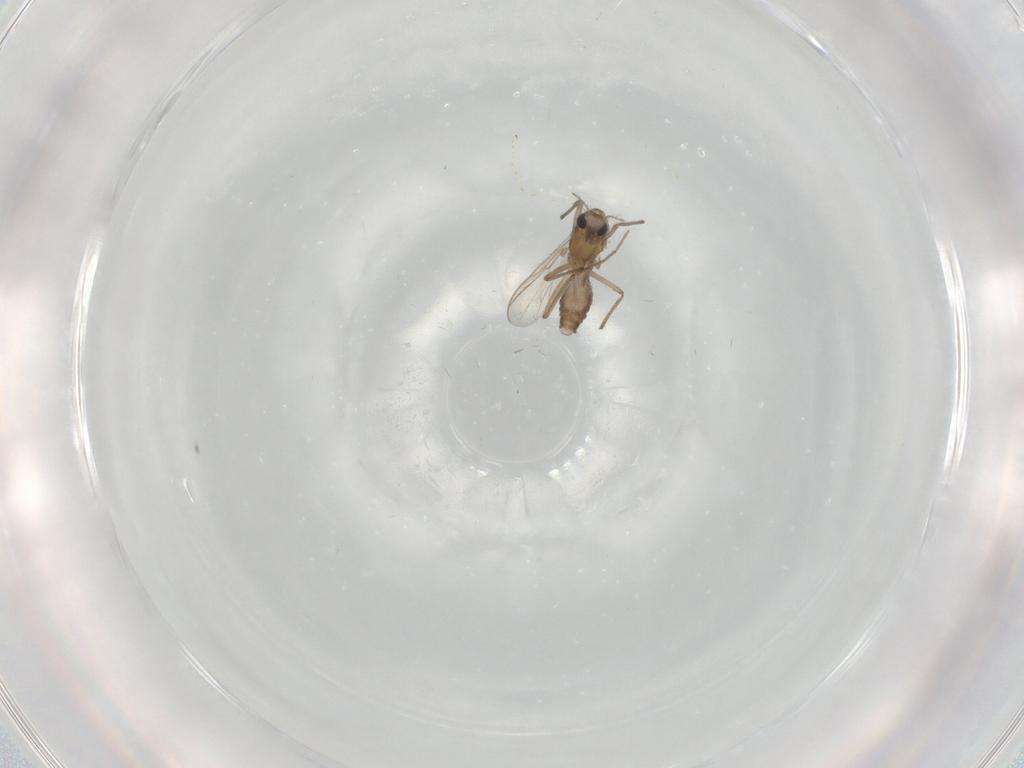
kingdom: Animalia
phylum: Arthropoda
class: Insecta
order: Diptera
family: Chironomidae
